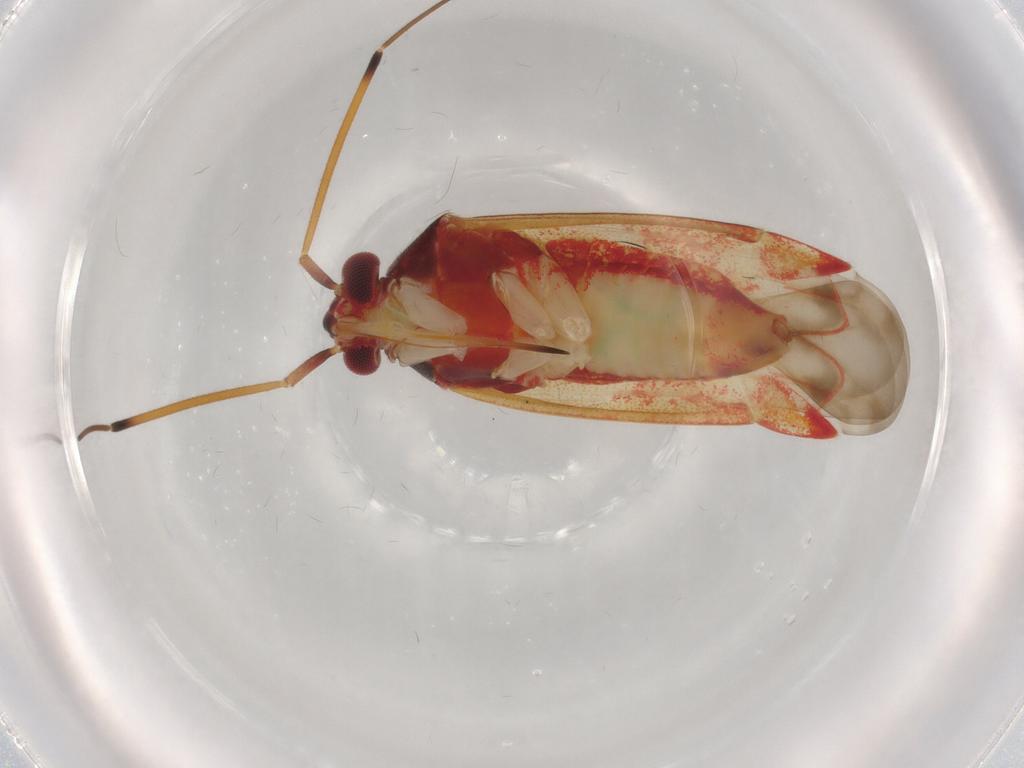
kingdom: Animalia
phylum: Arthropoda
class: Insecta
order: Hemiptera
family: Miridae
